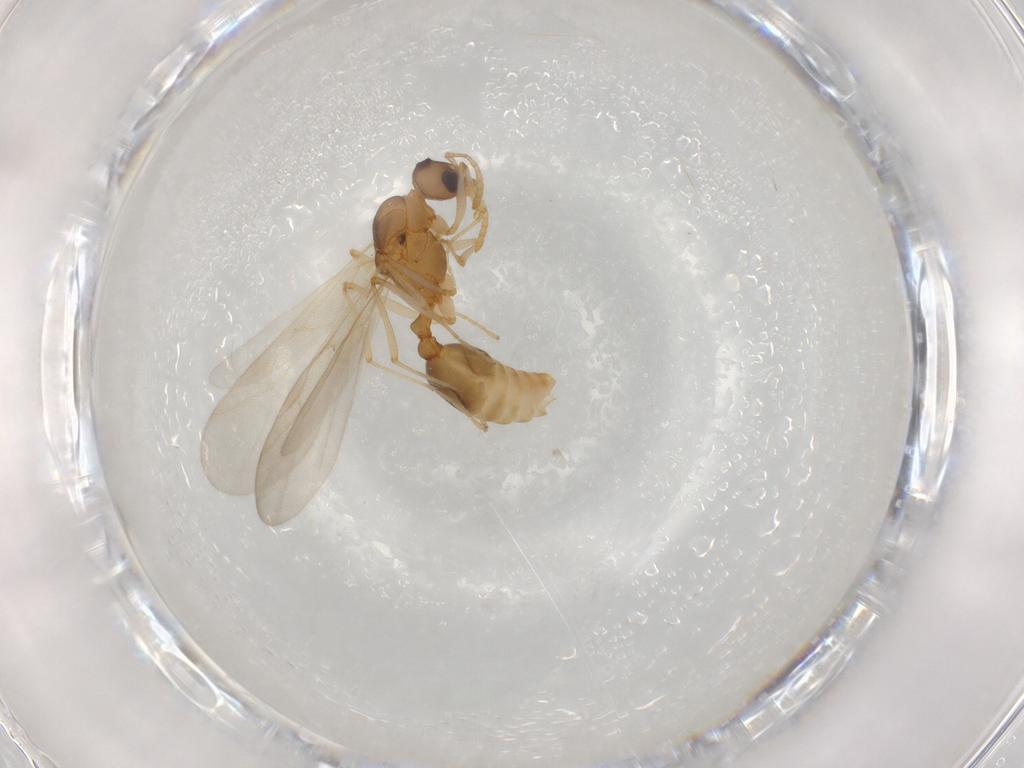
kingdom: Animalia
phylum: Arthropoda
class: Insecta
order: Hymenoptera
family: Formicidae
